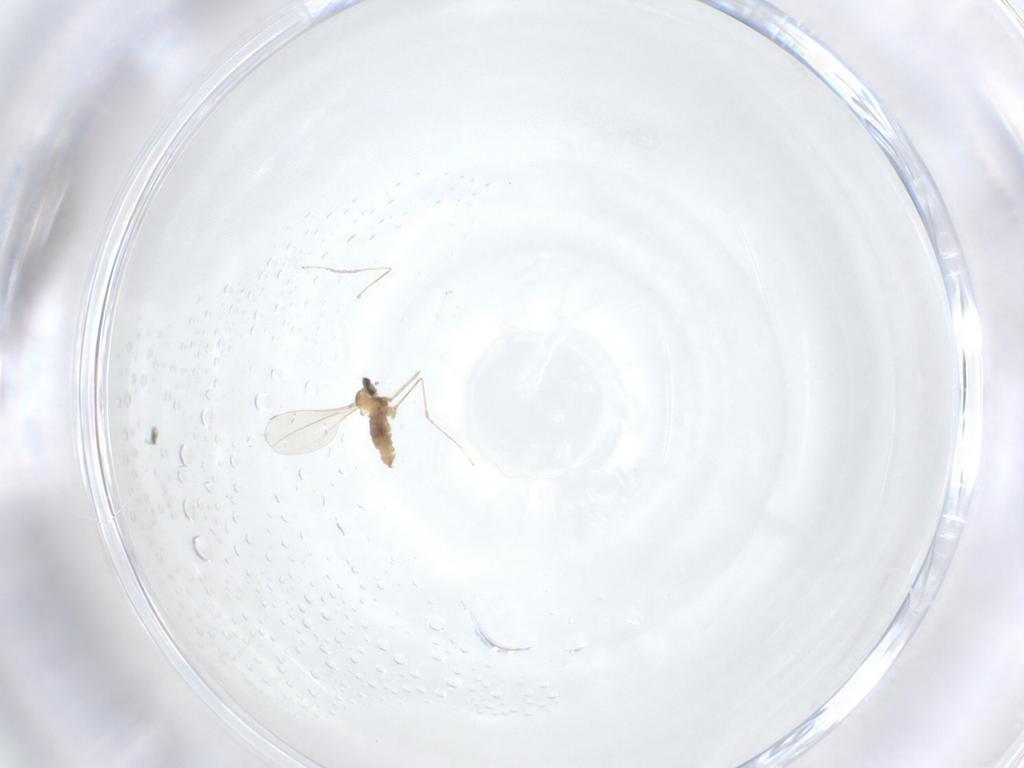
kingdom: Animalia
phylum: Arthropoda
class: Insecta
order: Diptera
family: Cecidomyiidae
